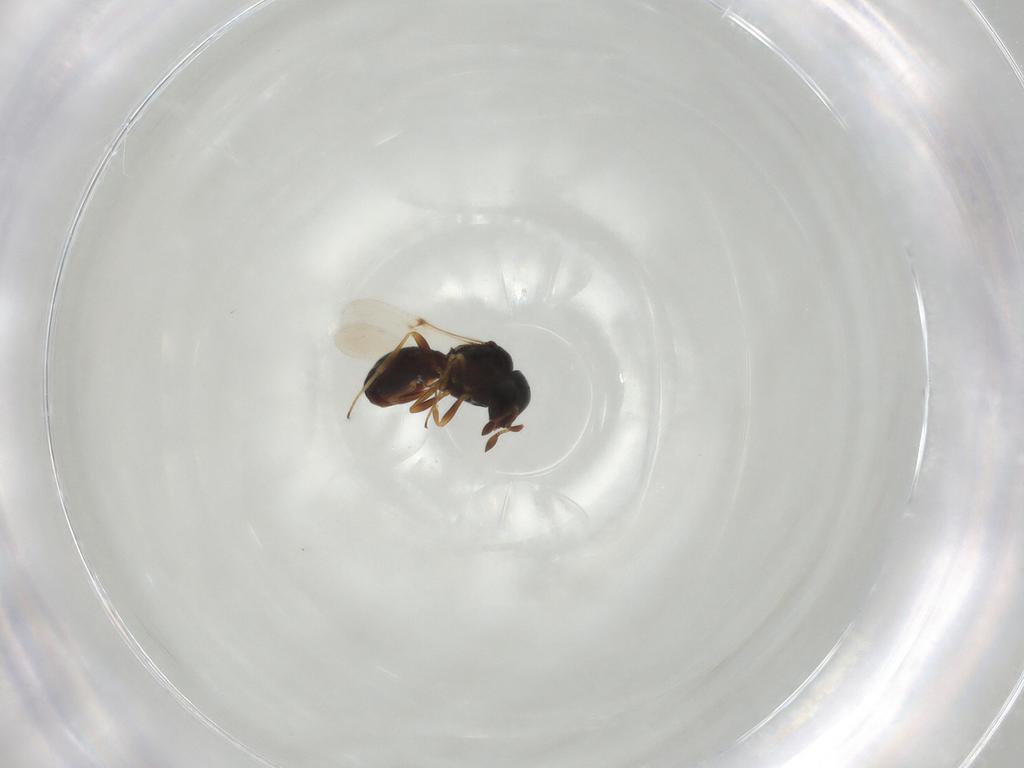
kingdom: Animalia
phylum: Arthropoda
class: Insecta
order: Hymenoptera
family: Scelionidae
